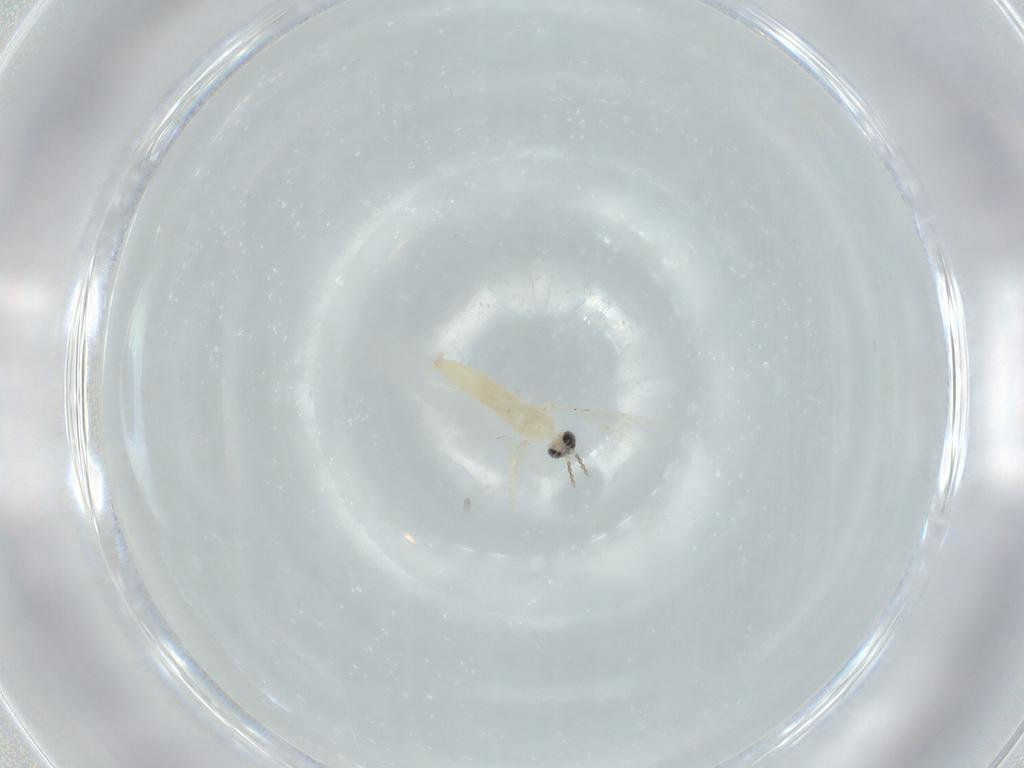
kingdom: Animalia
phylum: Arthropoda
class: Insecta
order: Diptera
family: Cecidomyiidae
